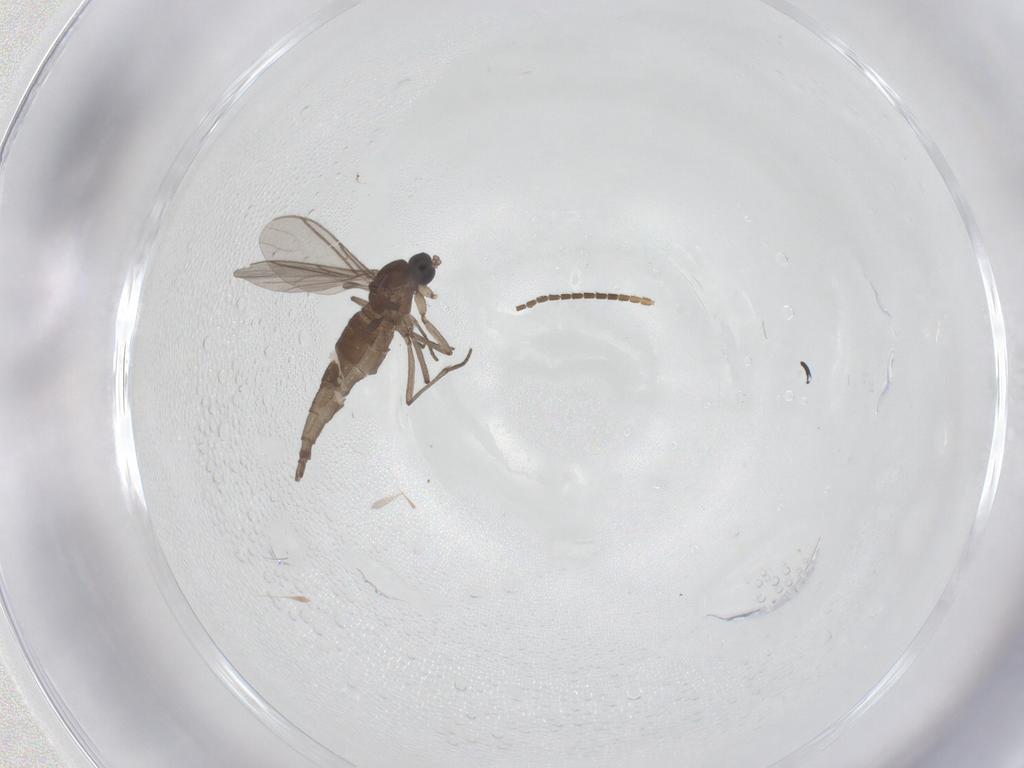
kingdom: Animalia
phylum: Arthropoda
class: Insecta
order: Diptera
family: Sciaridae
